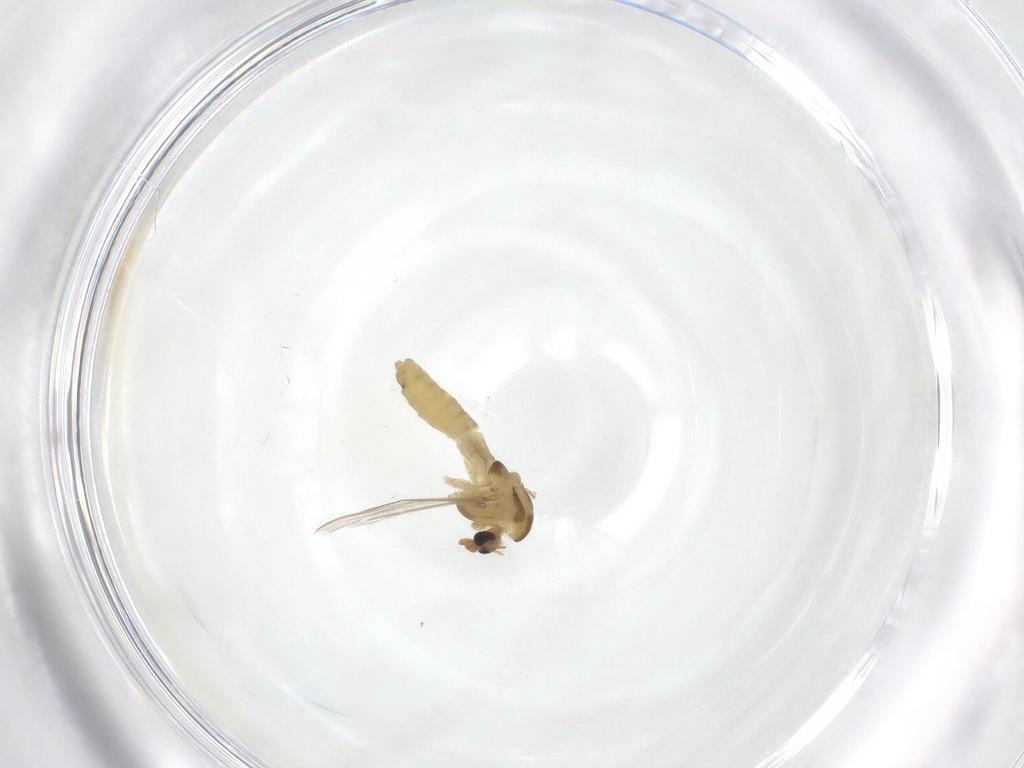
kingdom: Animalia
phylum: Arthropoda
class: Insecta
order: Diptera
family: Chironomidae
